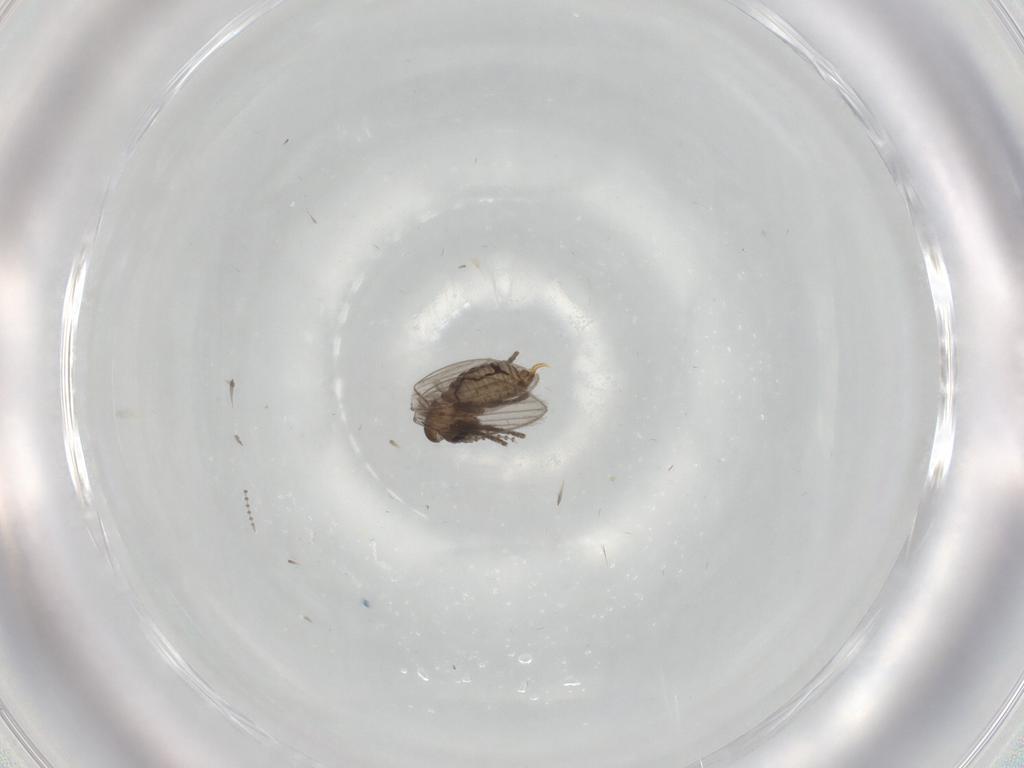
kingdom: Animalia
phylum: Arthropoda
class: Insecta
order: Diptera
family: Psychodidae
